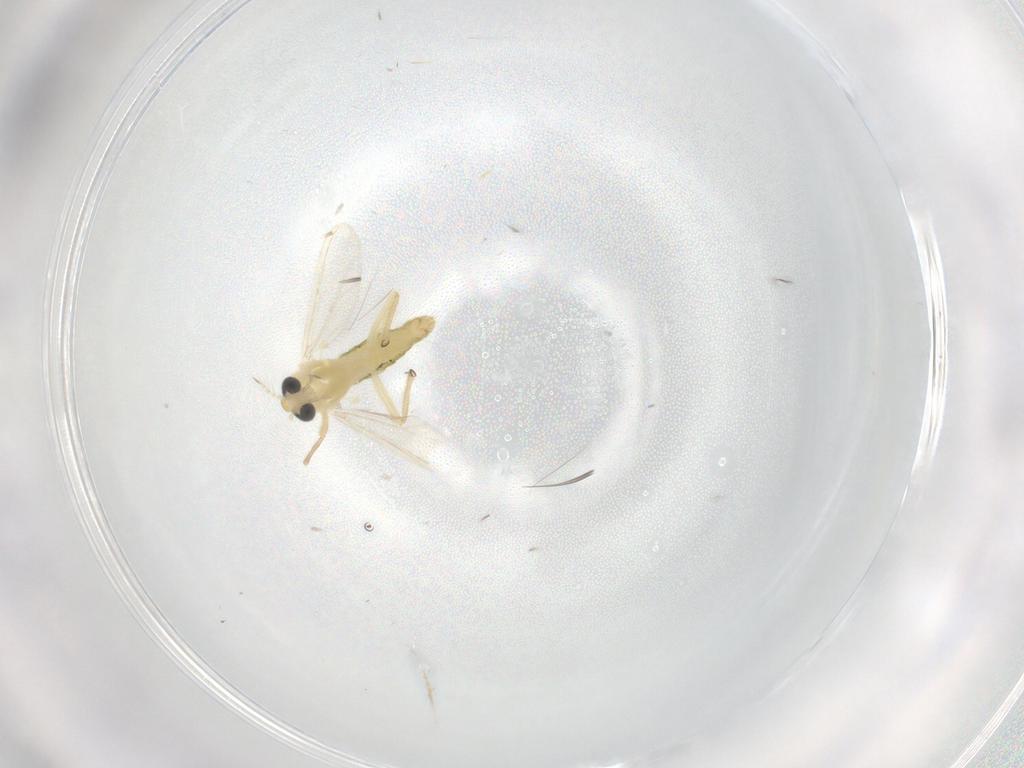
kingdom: Animalia
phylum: Arthropoda
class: Insecta
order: Diptera
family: Chironomidae
